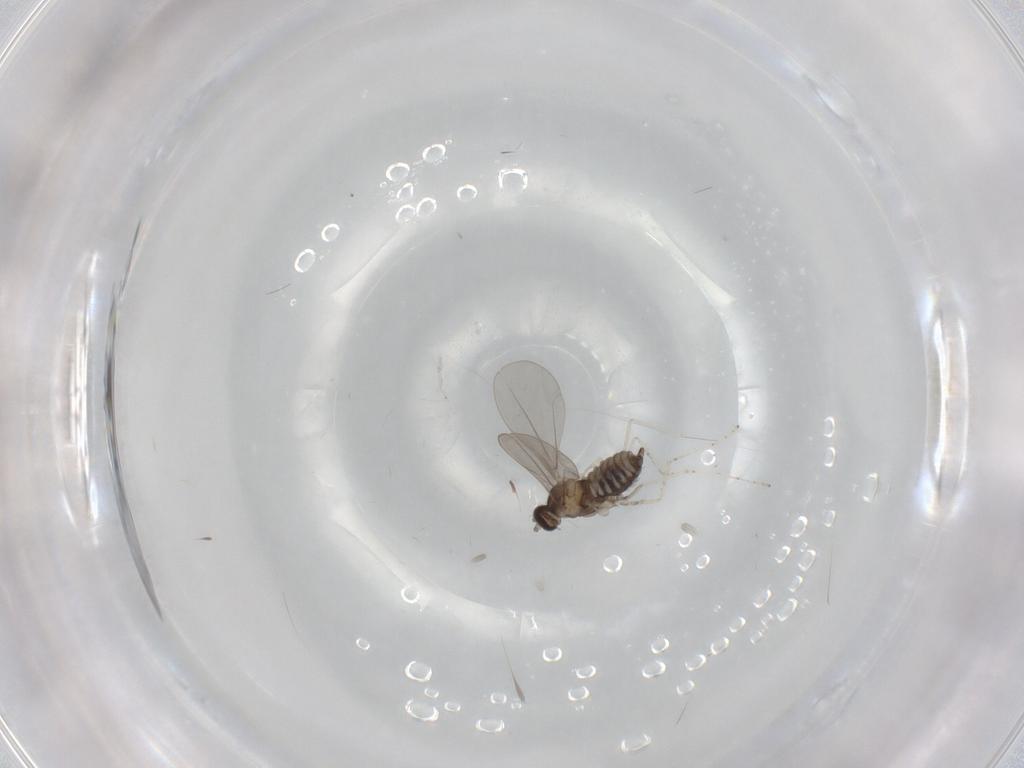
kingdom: Animalia
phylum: Arthropoda
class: Insecta
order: Diptera
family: Cecidomyiidae
